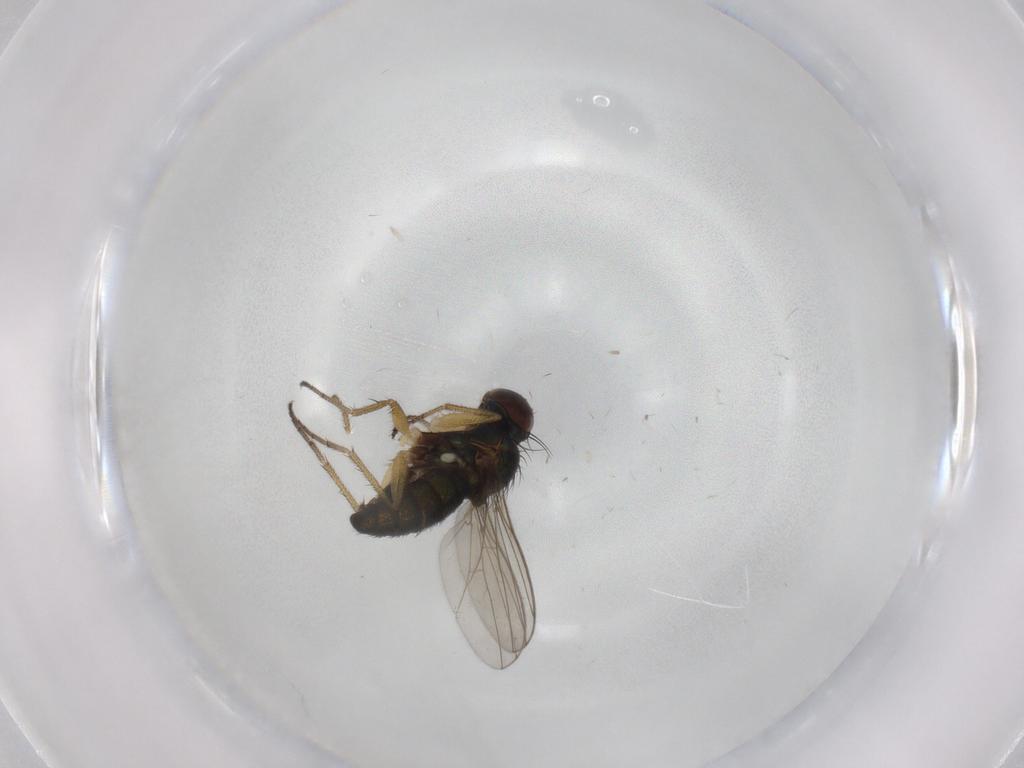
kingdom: Animalia
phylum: Arthropoda
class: Insecta
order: Diptera
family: Dolichopodidae
